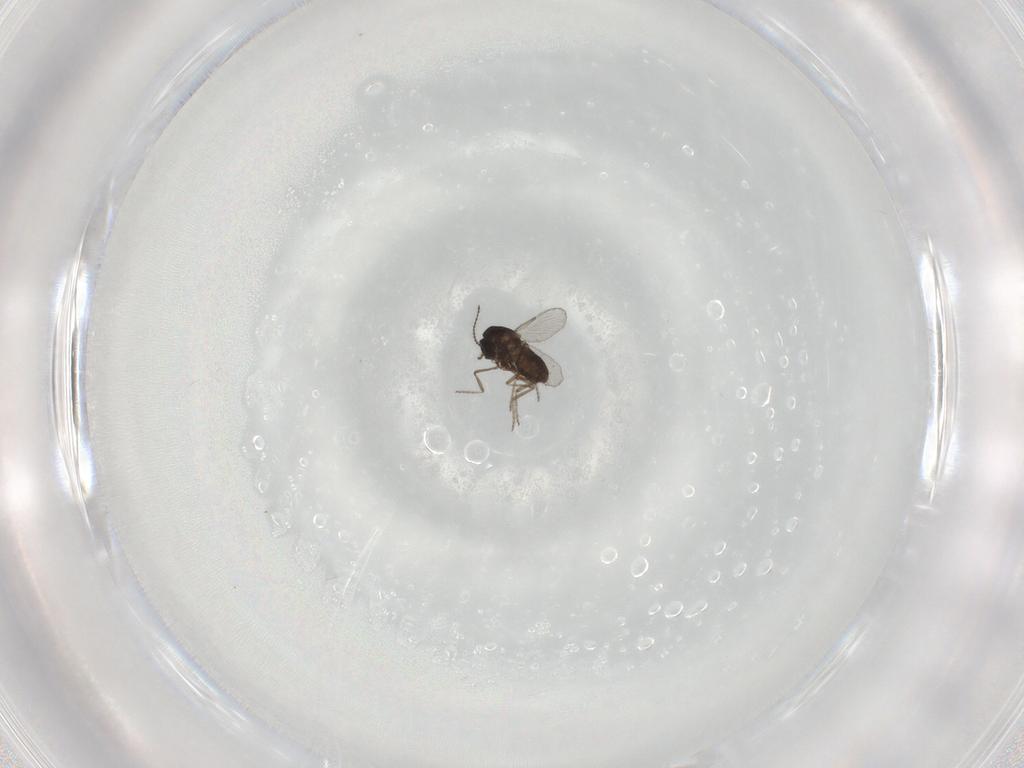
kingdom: Animalia
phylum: Arthropoda
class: Insecta
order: Diptera
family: Ceratopogonidae
